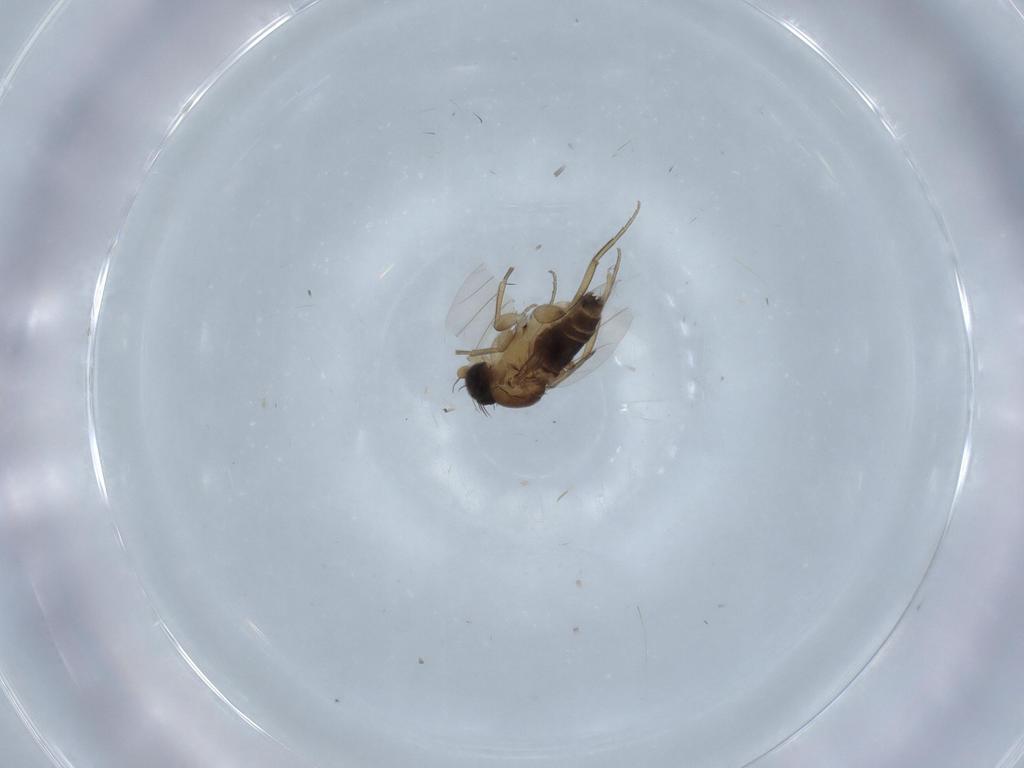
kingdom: Animalia
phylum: Arthropoda
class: Insecta
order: Diptera
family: Phoridae
